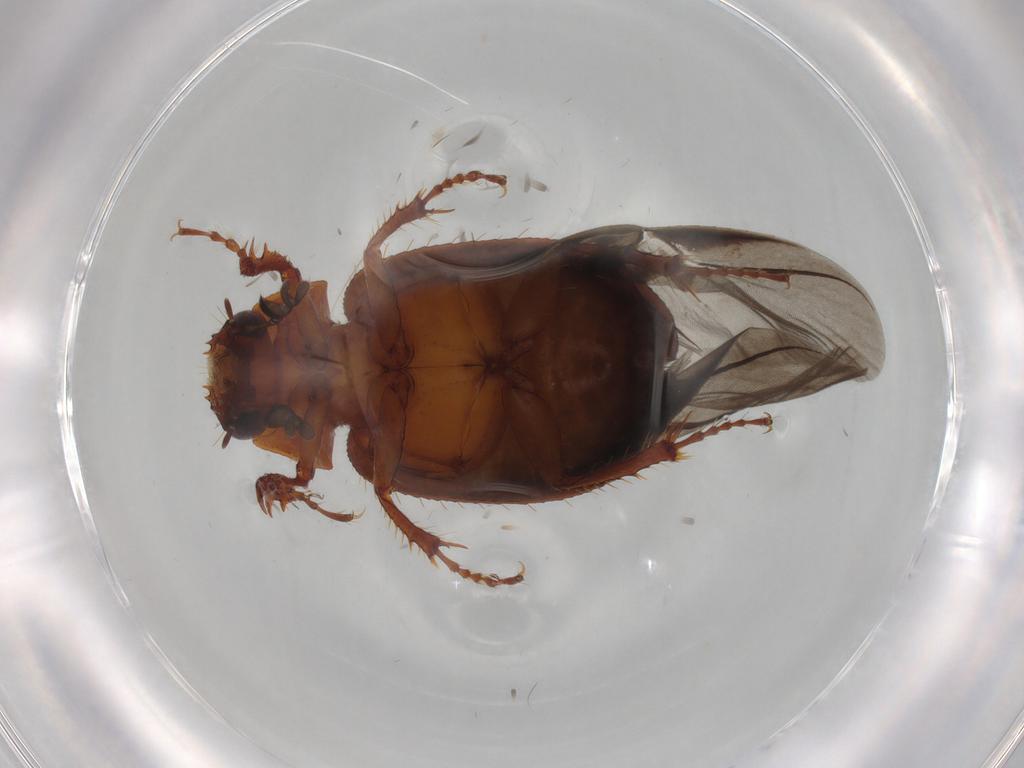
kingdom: Animalia
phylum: Arthropoda
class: Insecta
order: Coleoptera
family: Hybosoridae
